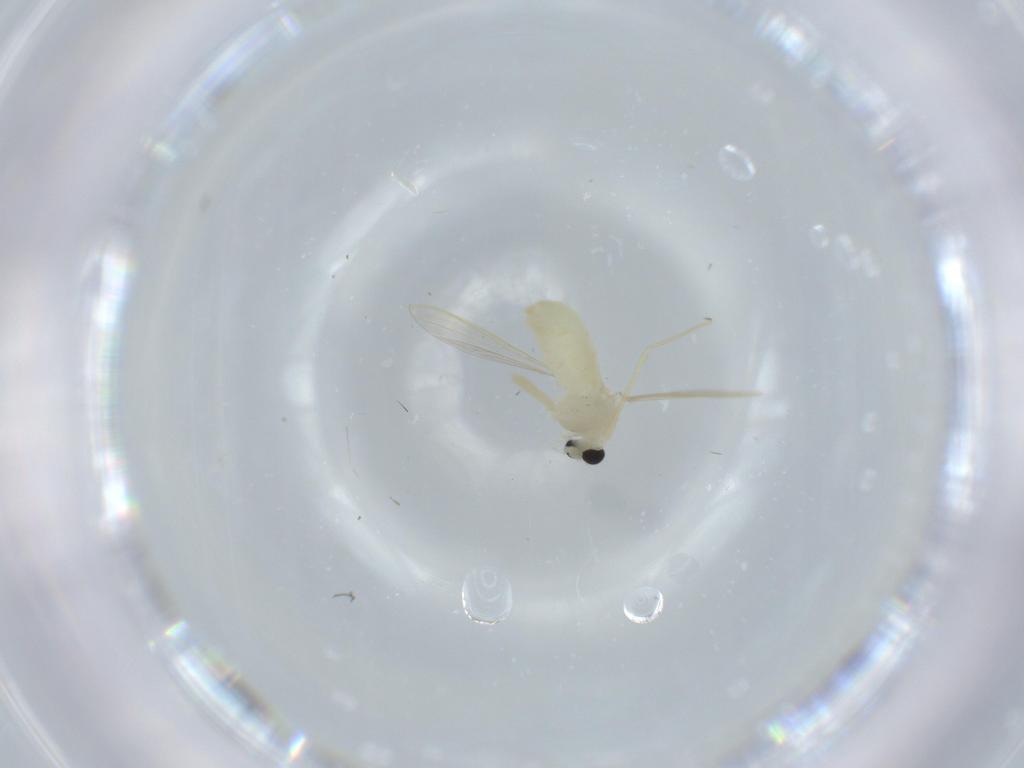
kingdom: Animalia
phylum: Arthropoda
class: Insecta
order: Diptera
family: Chironomidae
